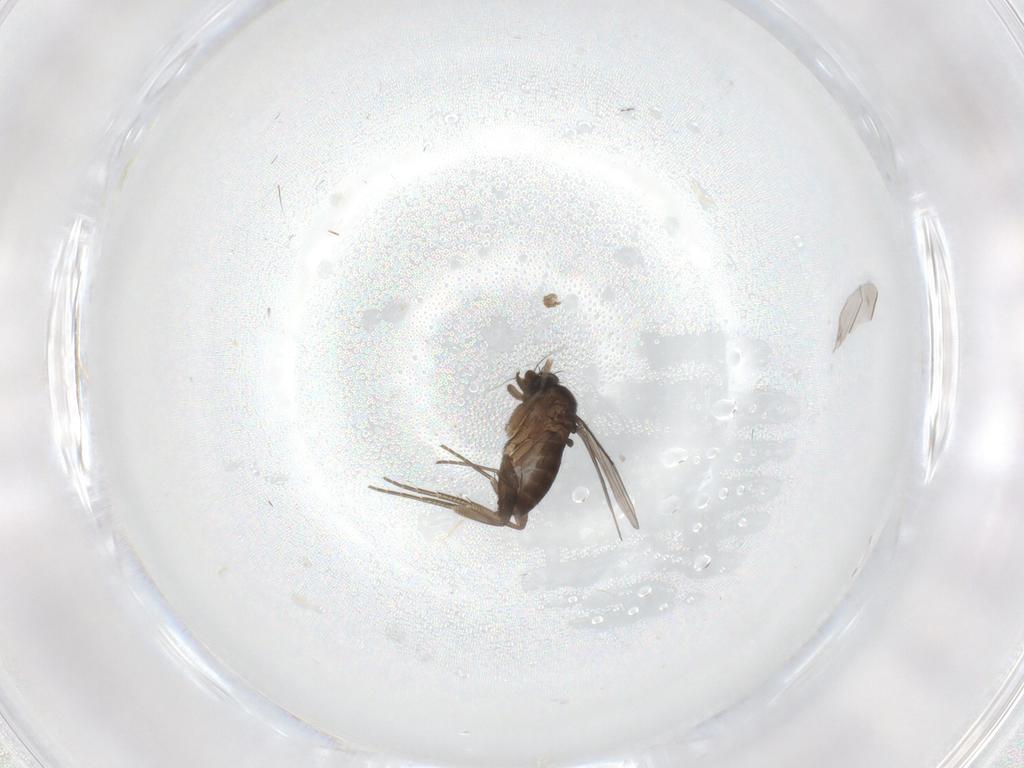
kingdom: Animalia
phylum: Arthropoda
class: Insecta
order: Diptera
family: Phoridae
